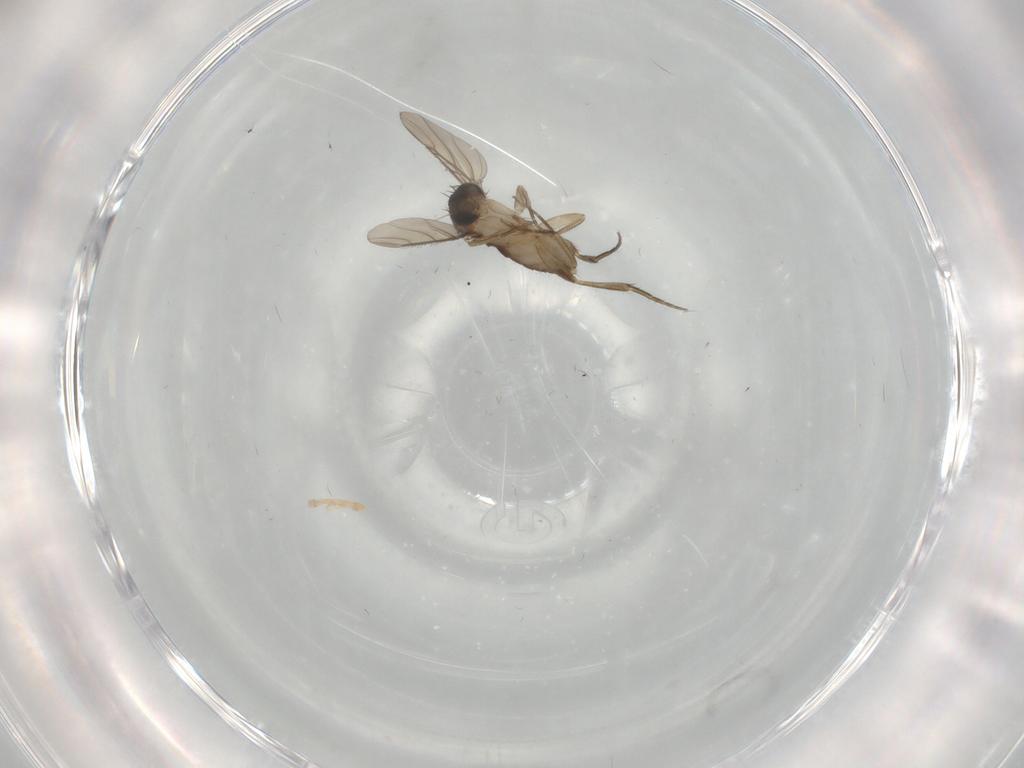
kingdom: Animalia
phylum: Arthropoda
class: Insecta
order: Diptera
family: Phoridae
